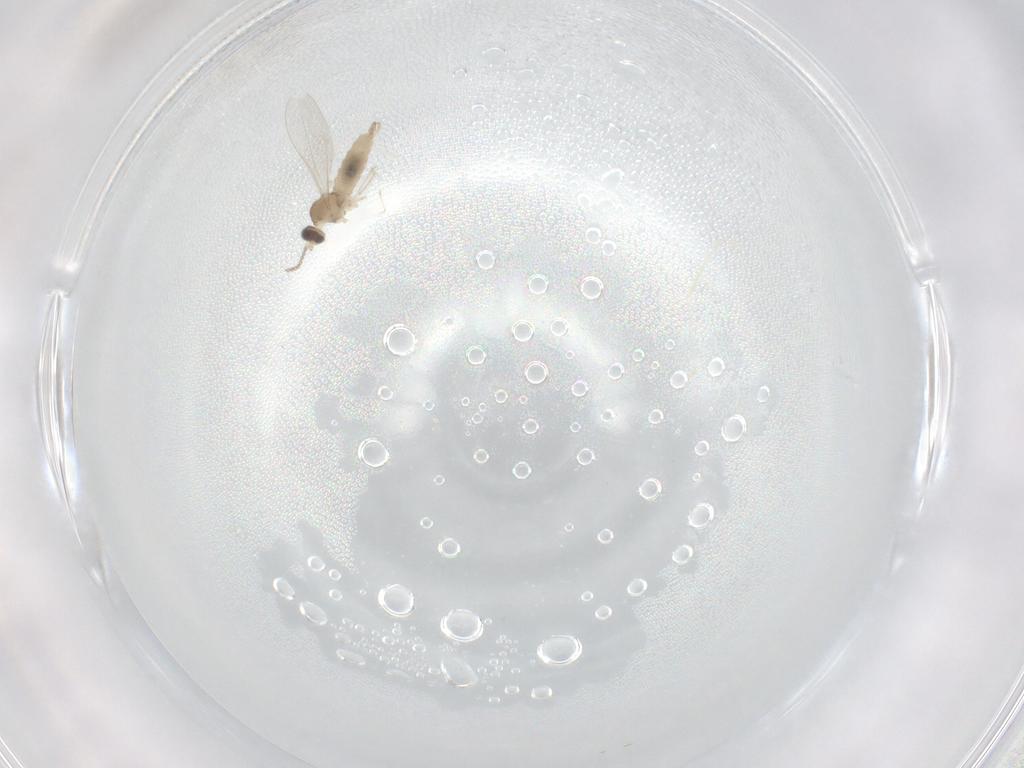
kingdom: Animalia
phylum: Arthropoda
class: Insecta
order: Diptera
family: Cecidomyiidae
